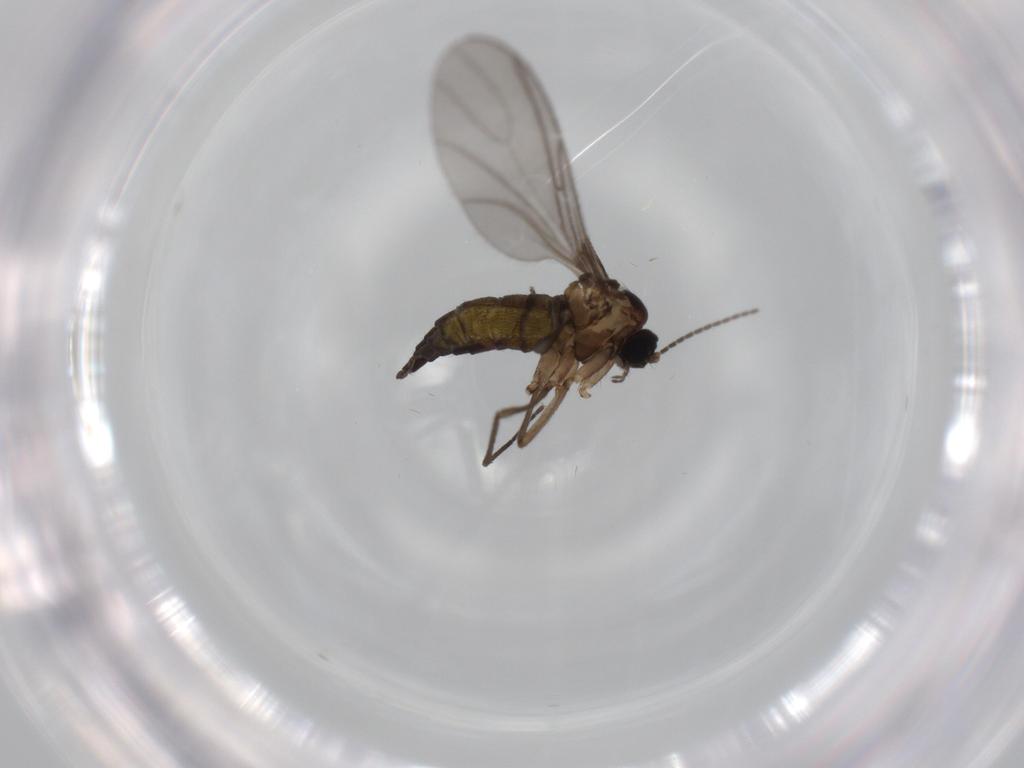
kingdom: Animalia
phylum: Arthropoda
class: Insecta
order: Diptera
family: Sciaridae
